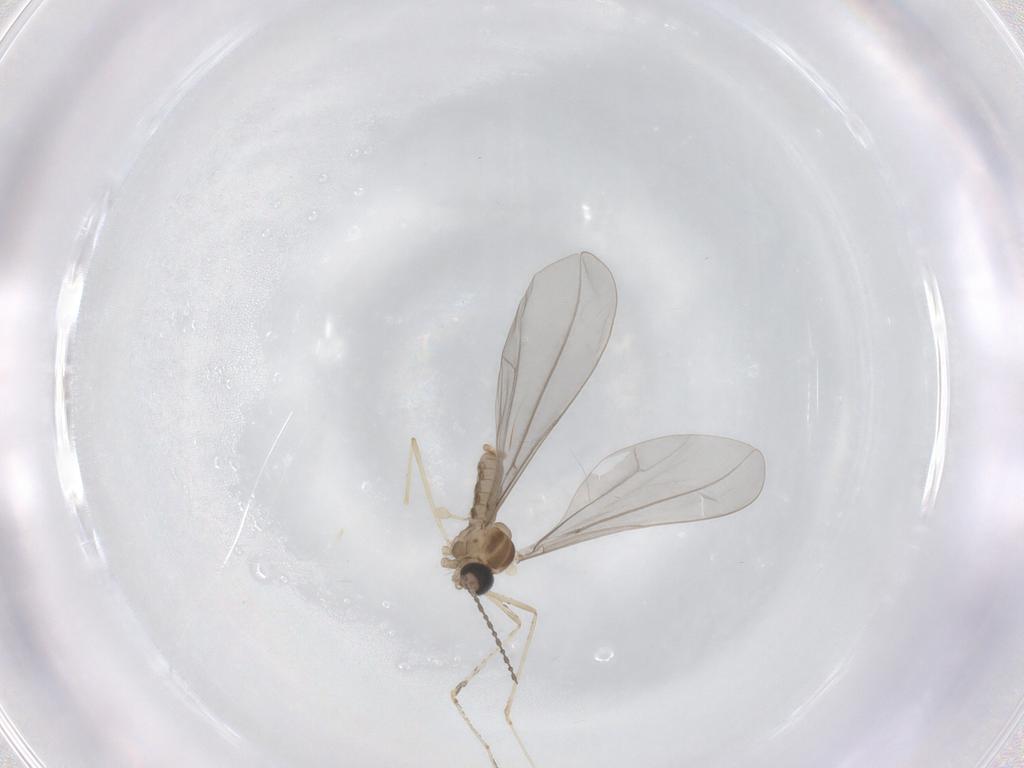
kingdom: Animalia
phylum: Arthropoda
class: Insecta
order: Diptera
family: Cecidomyiidae
